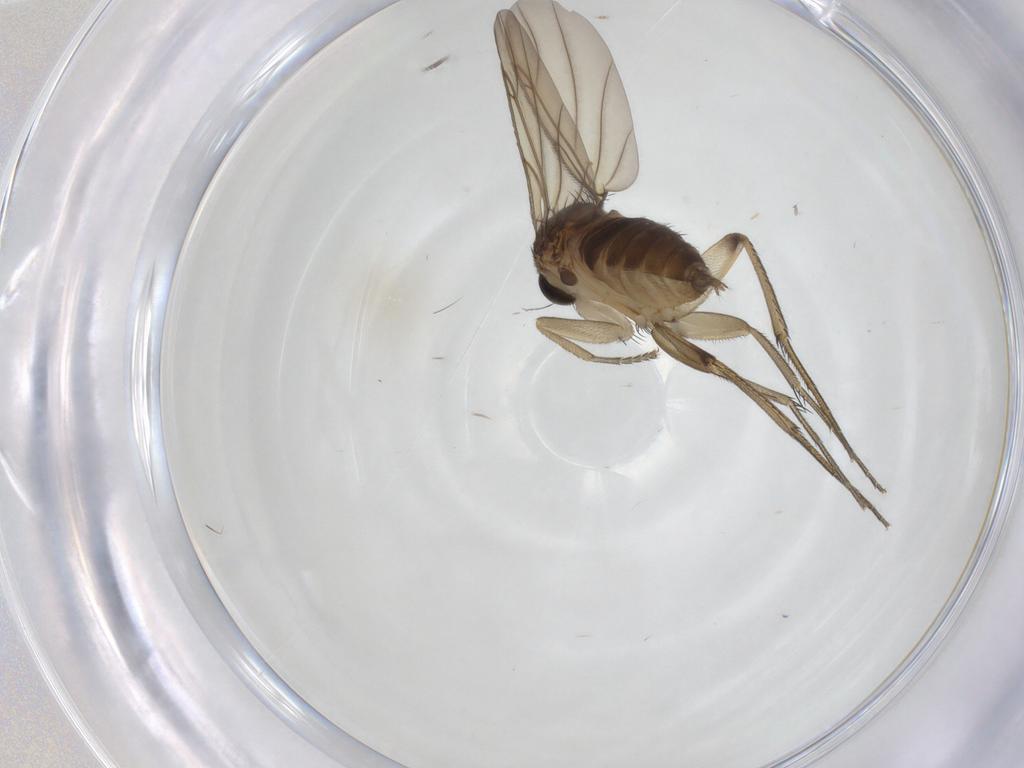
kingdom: Animalia
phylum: Arthropoda
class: Insecta
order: Diptera
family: Phoridae
